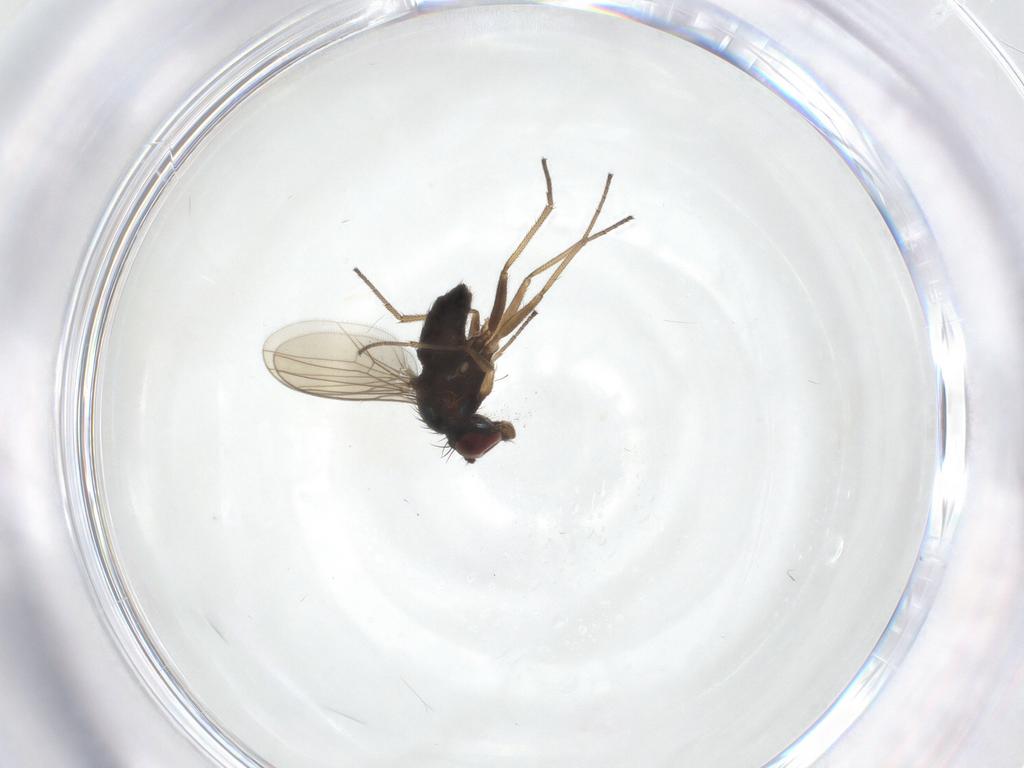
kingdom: Animalia
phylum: Arthropoda
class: Insecta
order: Diptera
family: Dolichopodidae
